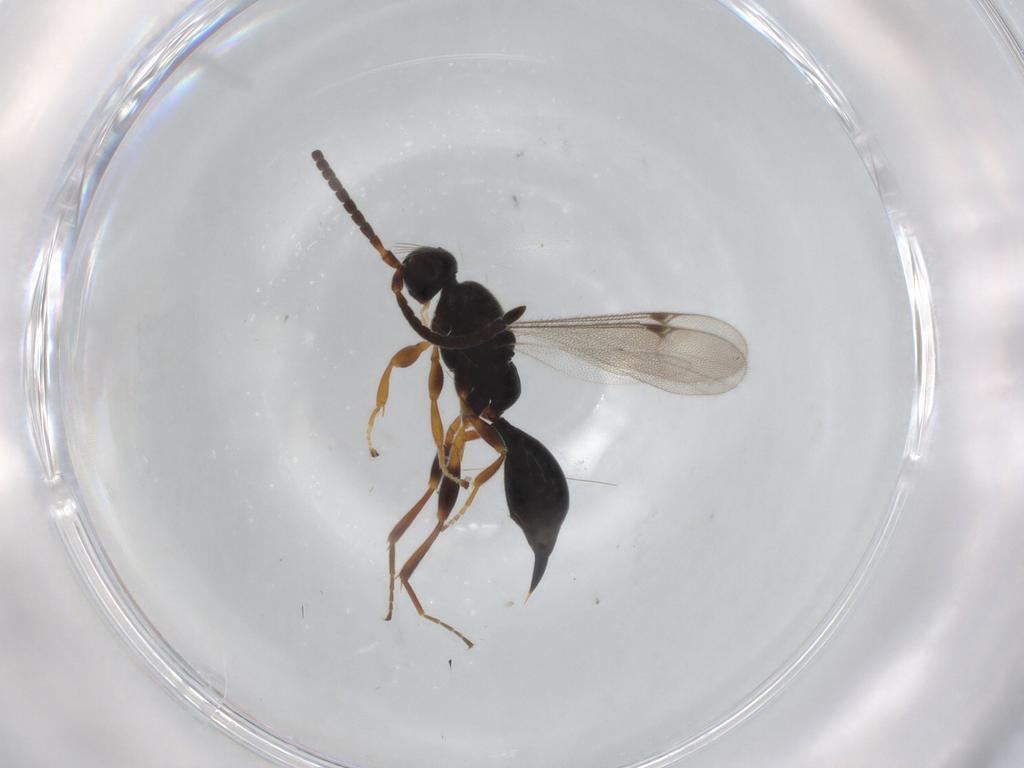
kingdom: Animalia
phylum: Arthropoda
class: Insecta
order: Hymenoptera
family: Proctotrupidae
